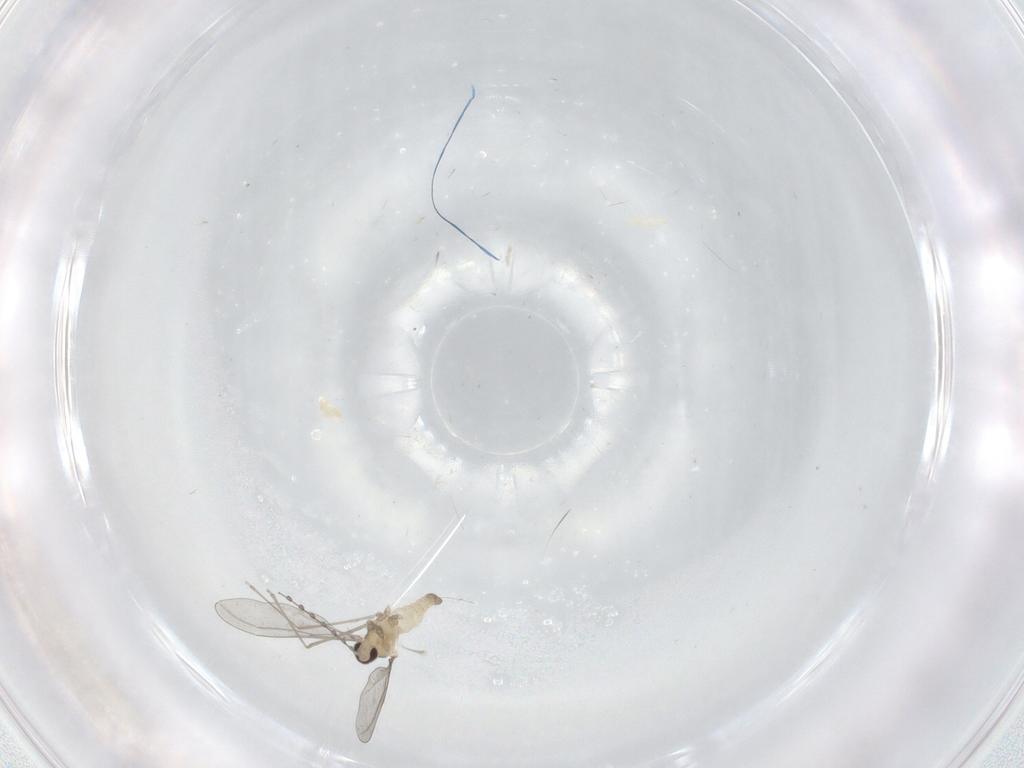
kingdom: Animalia
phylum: Arthropoda
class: Insecta
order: Diptera
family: Cecidomyiidae
